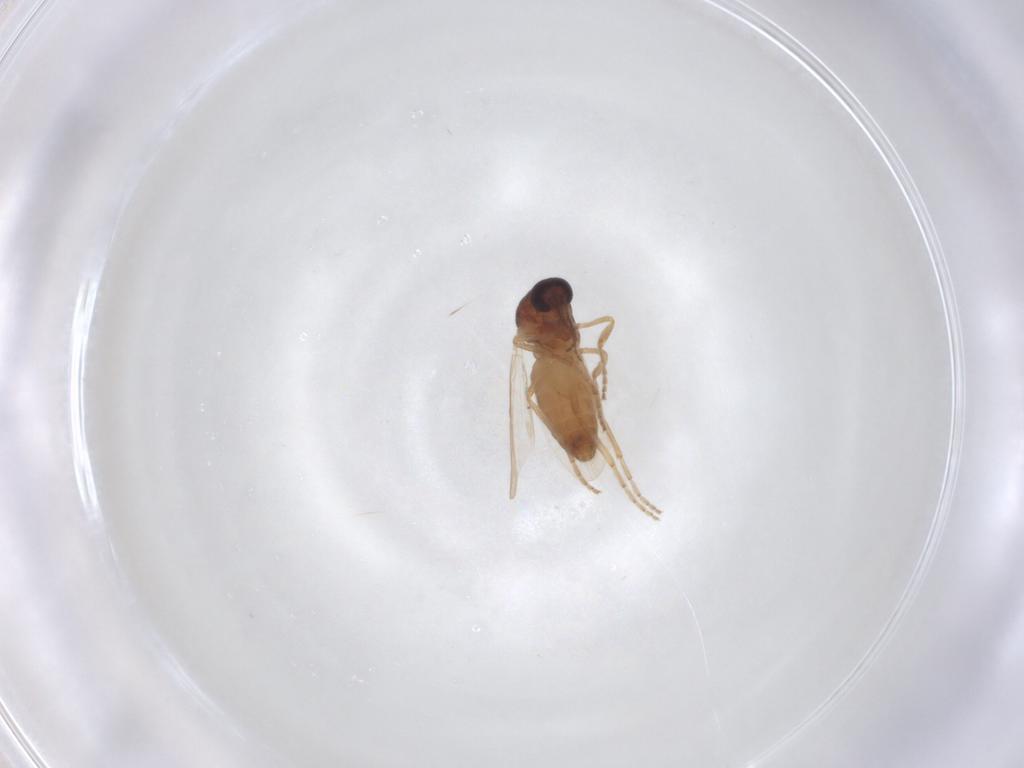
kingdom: Animalia
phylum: Arthropoda
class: Insecta
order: Diptera
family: Ceratopogonidae
